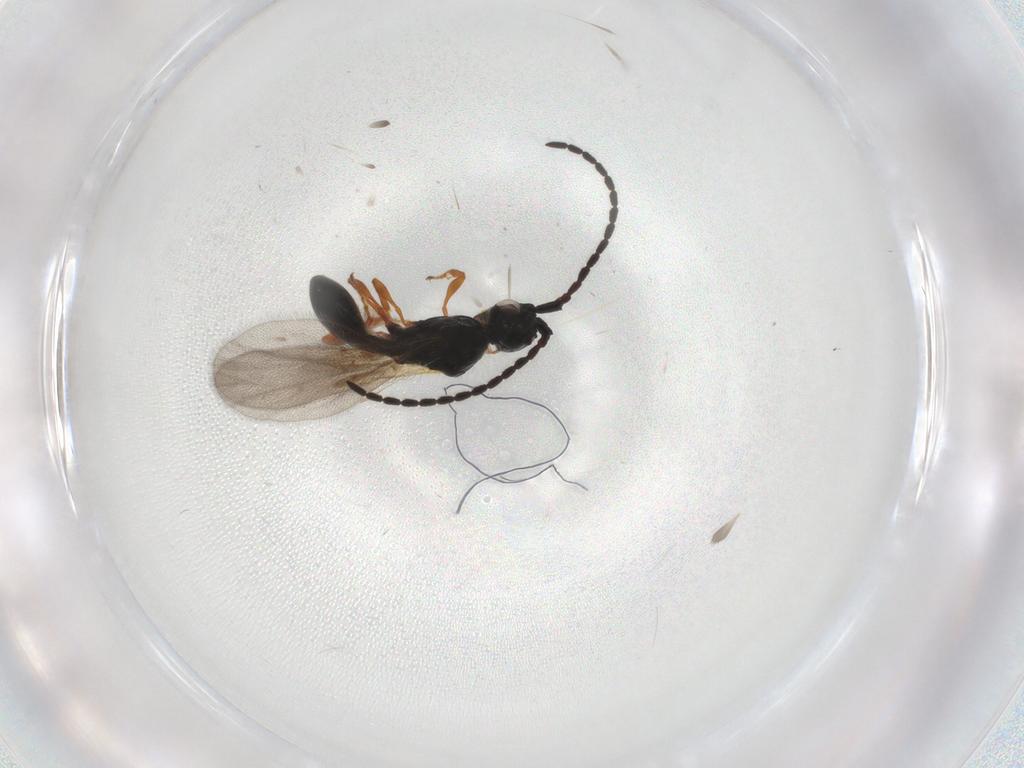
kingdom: Animalia
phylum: Arthropoda
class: Insecta
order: Hymenoptera
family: Diapriidae
